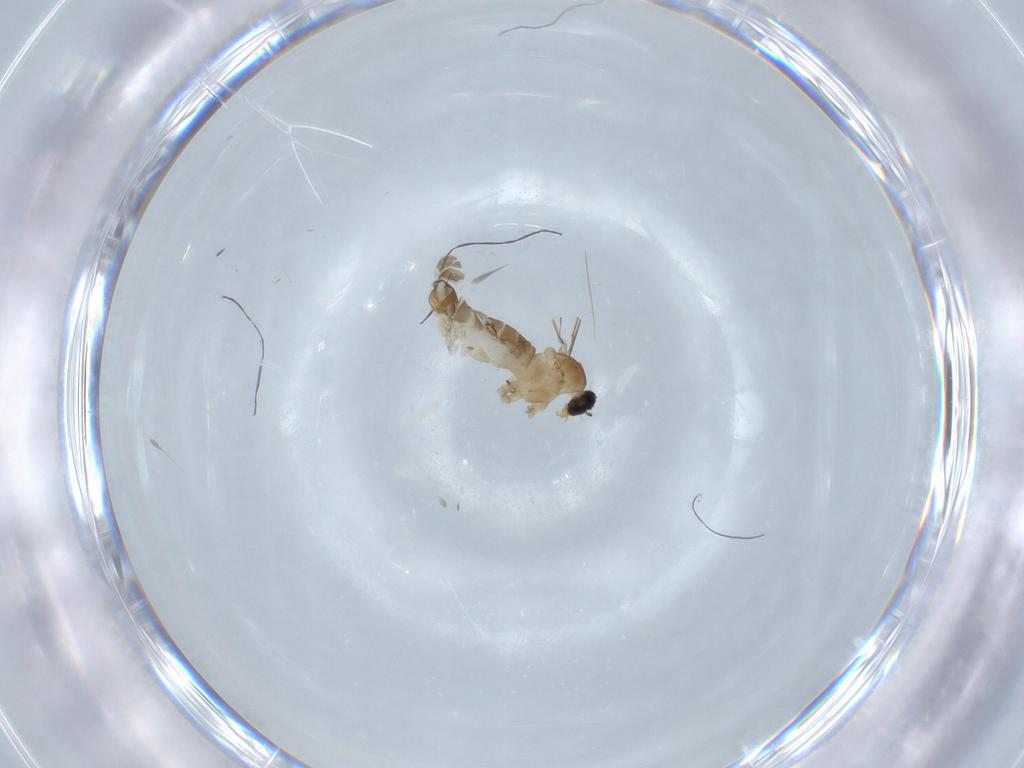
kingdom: Animalia
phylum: Arthropoda
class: Insecta
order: Diptera
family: Cecidomyiidae
